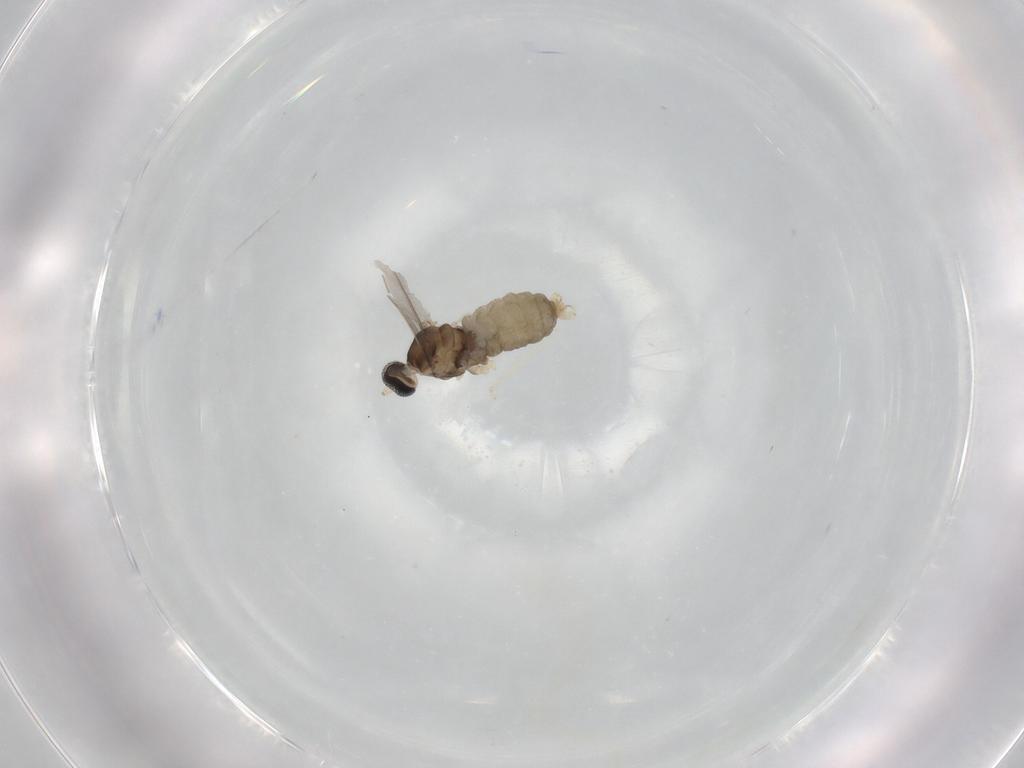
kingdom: Animalia
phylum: Arthropoda
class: Insecta
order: Diptera
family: Cecidomyiidae
